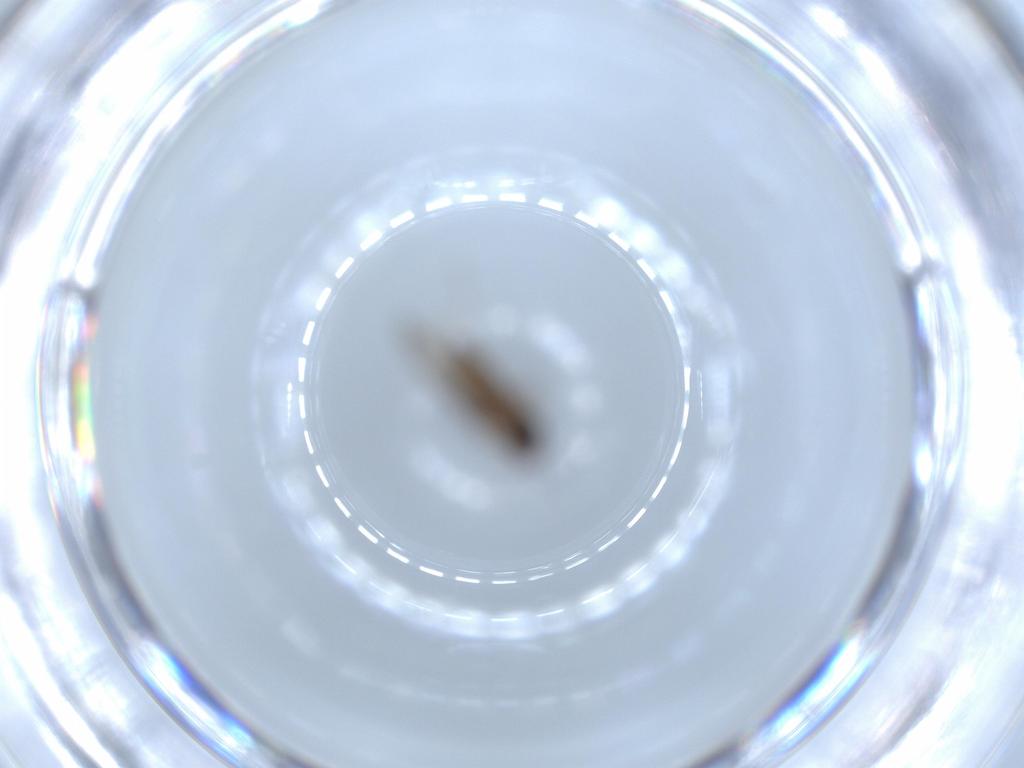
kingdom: Animalia
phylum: Arthropoda
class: Insecta
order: Diptera
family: Psychodidae
